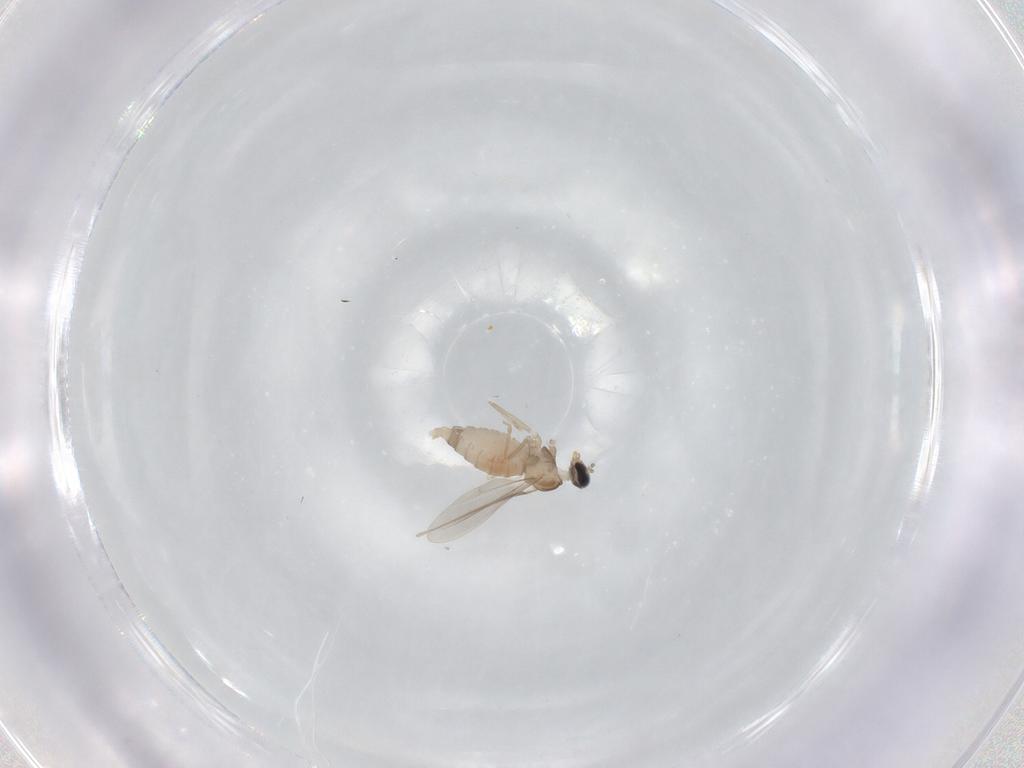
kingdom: Animalia
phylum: Arthropoda
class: Insecta
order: Diptera
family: Cecidomyiidae
